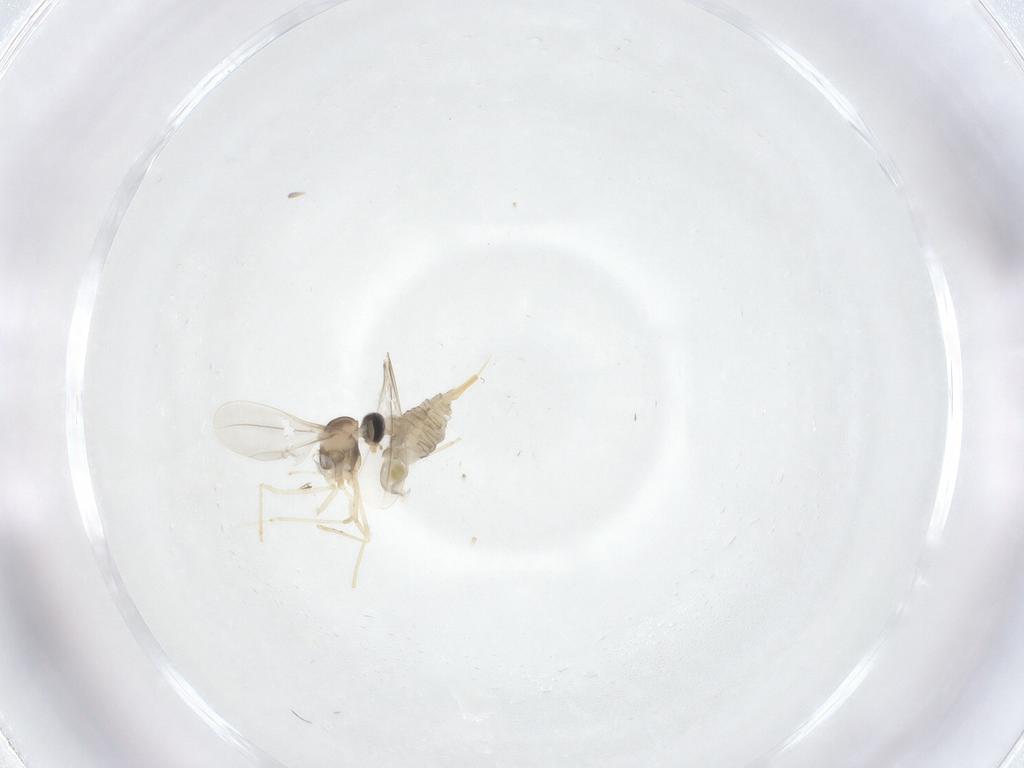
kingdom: Animalia
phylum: Arthropoda
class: Insecta
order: Diptera
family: Cecidomyiidae
